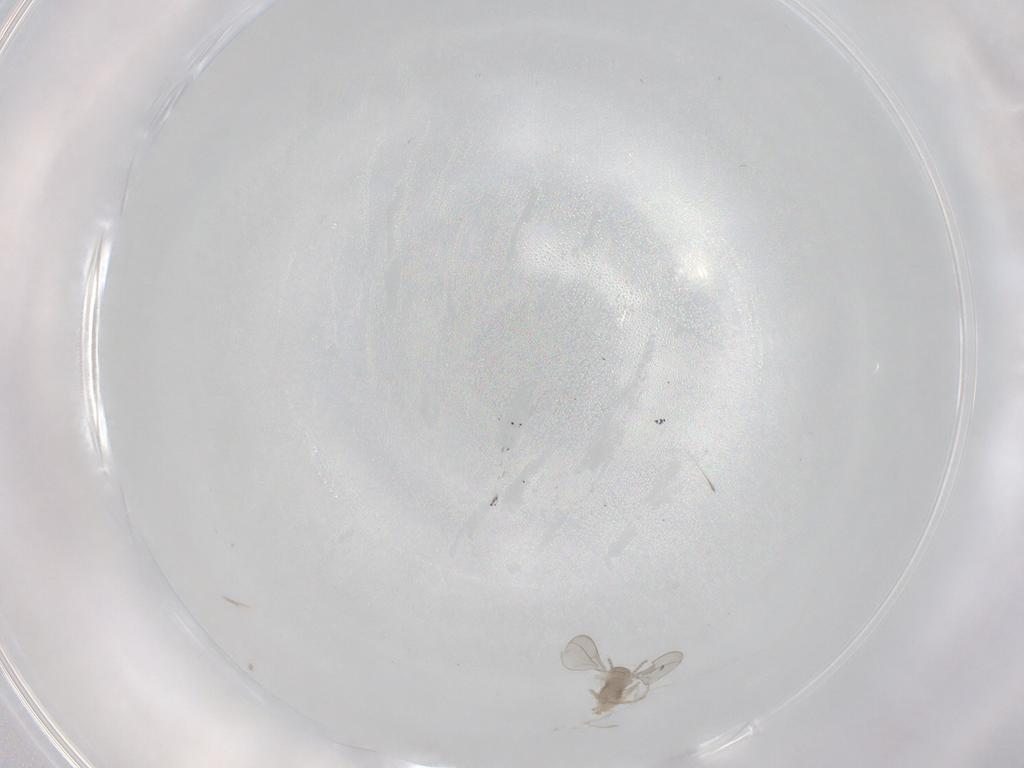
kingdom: Animalia
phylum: Arthropoda
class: Insecta
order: Diptera
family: Cecidomyiidae
